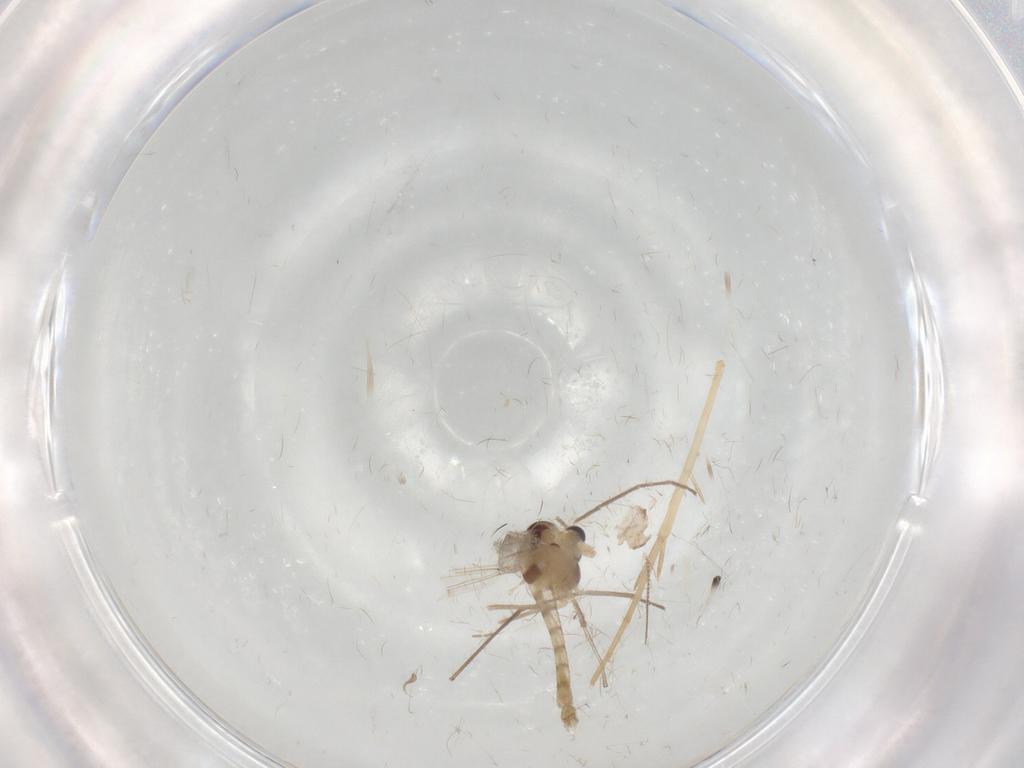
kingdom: Animalia
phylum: Arthropoda
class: Insecta
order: Diptera
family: Chironomidae
